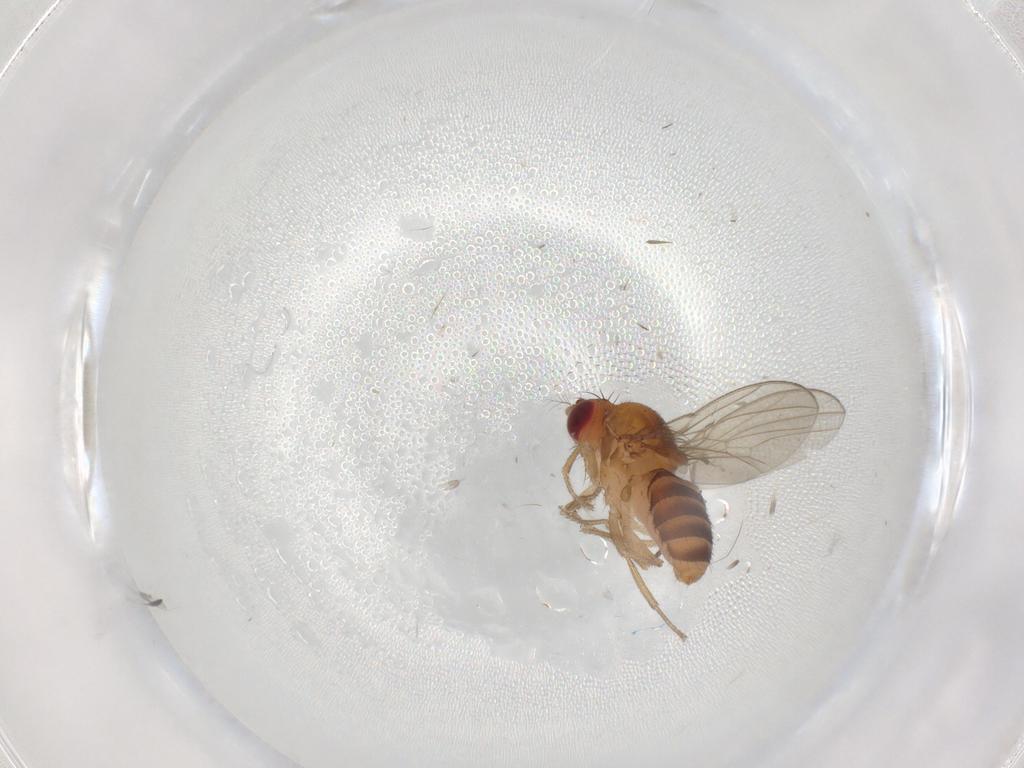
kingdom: Animalia
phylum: Arthropoda
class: Insecta
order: Diptera
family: Drosophilidae
